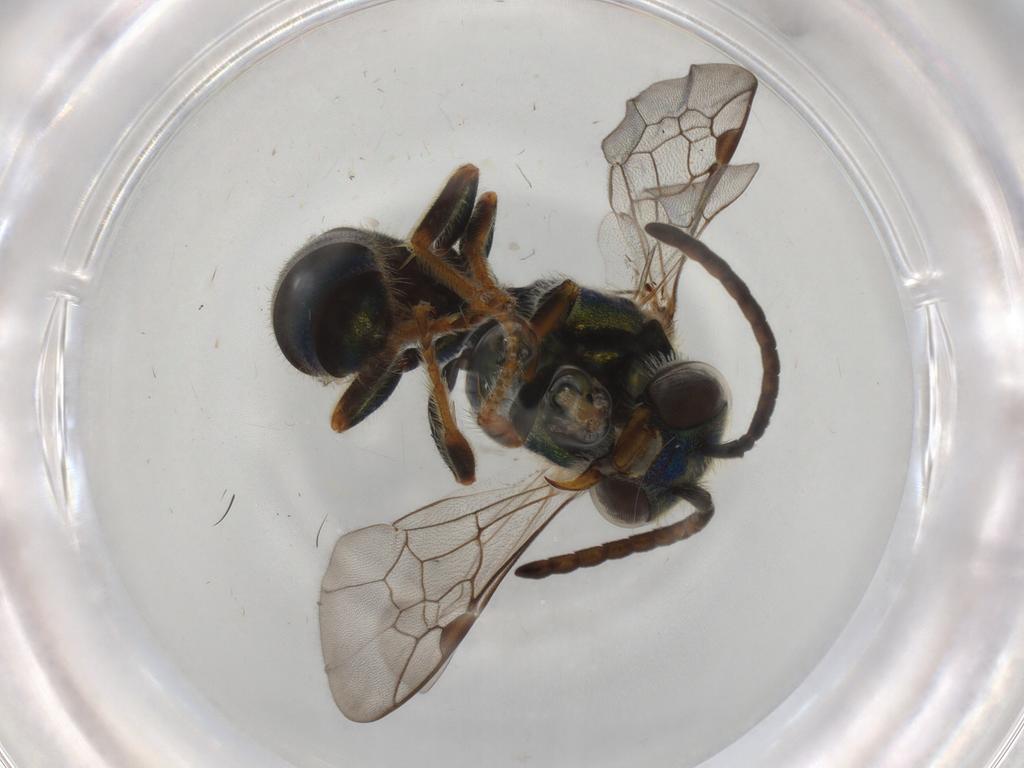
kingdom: Animalia
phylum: Arthropoda
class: Insecta
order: Hymenoptera
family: Halictidae
